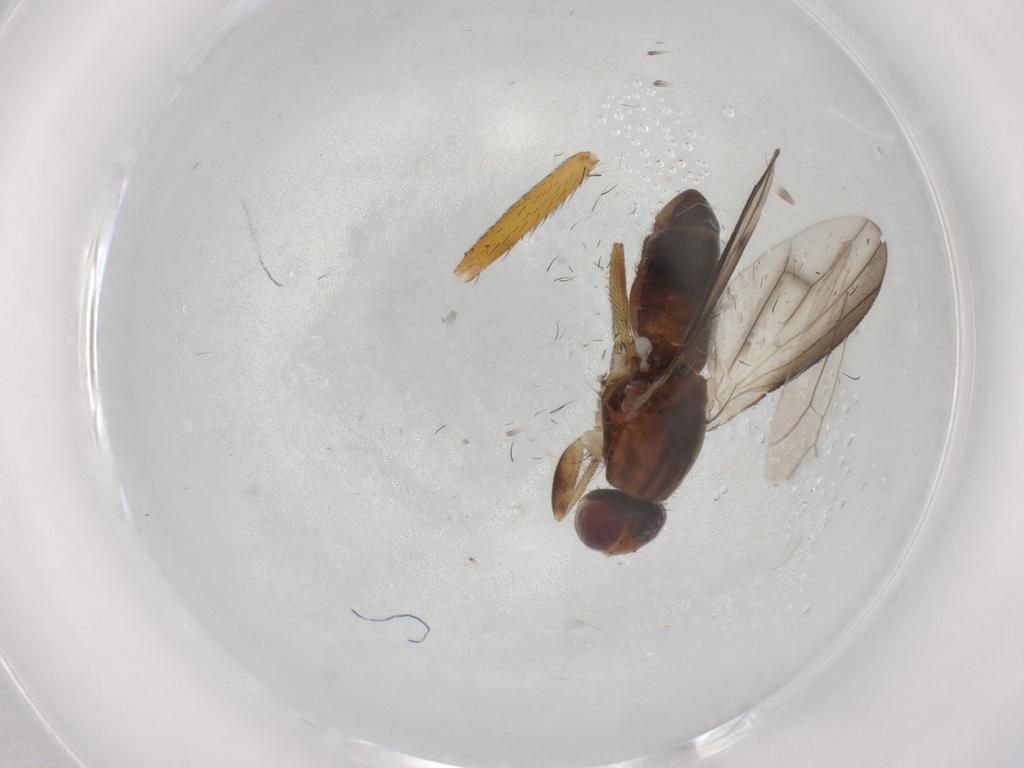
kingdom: Animalia
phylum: Arthropoda
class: Insecta
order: Diptera
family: Heleomyzidae
